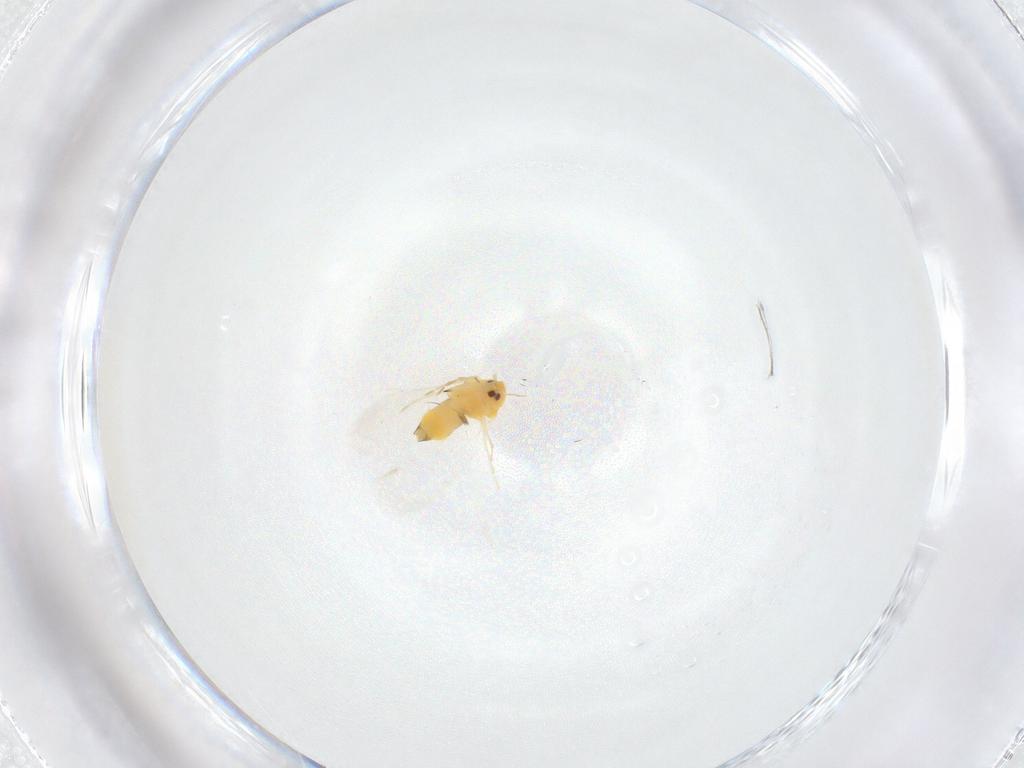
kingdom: Animalia
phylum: Arthropoda
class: Insecta
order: Hemiptera
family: Aleyrodidae
